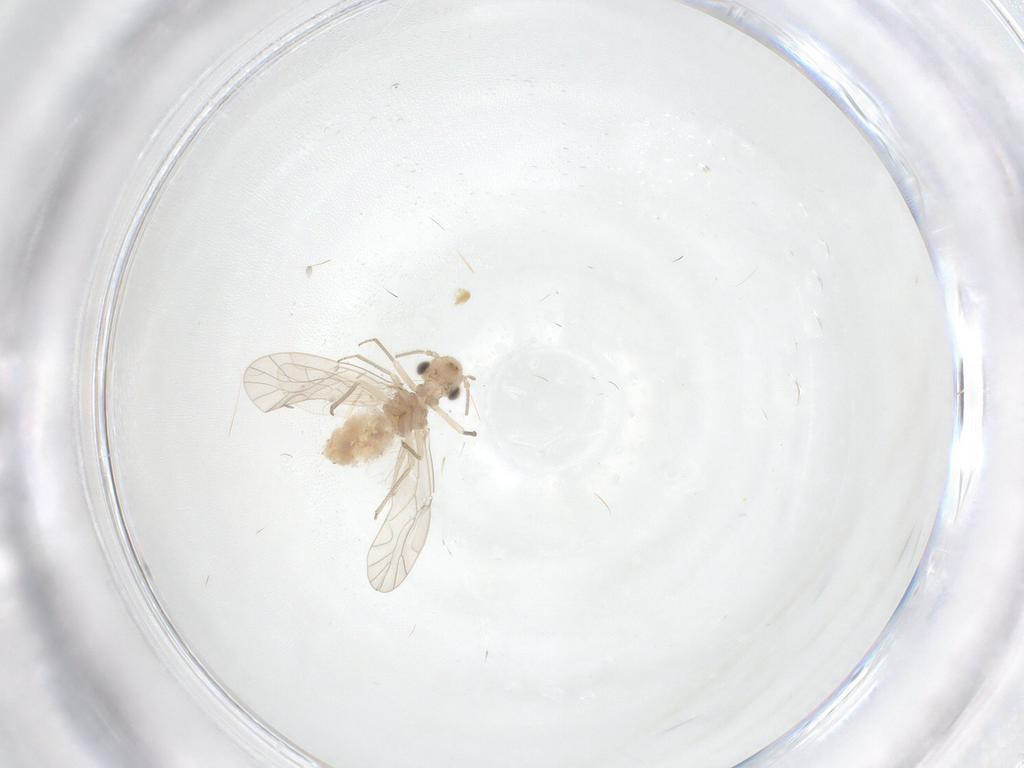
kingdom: Animalia
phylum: Arthropoda
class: Insecta
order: Psocodea
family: Lachesillidae
